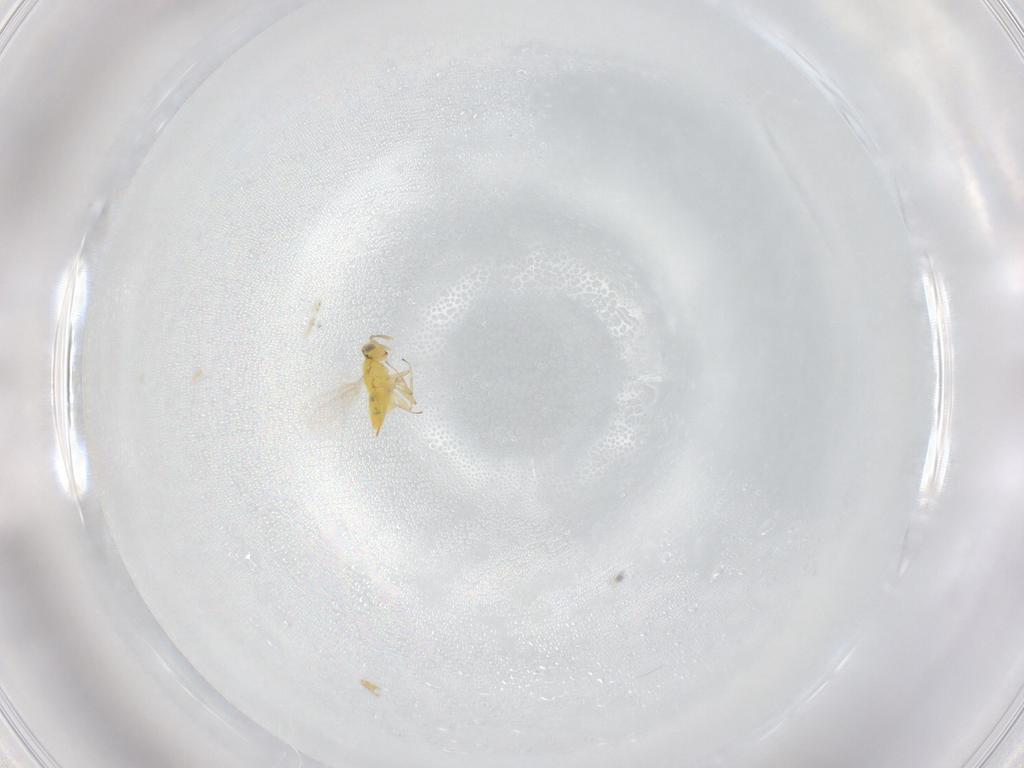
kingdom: Animalia
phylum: Arthropoda
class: Insecta
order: Hymenoptera
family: Aphelinidae
